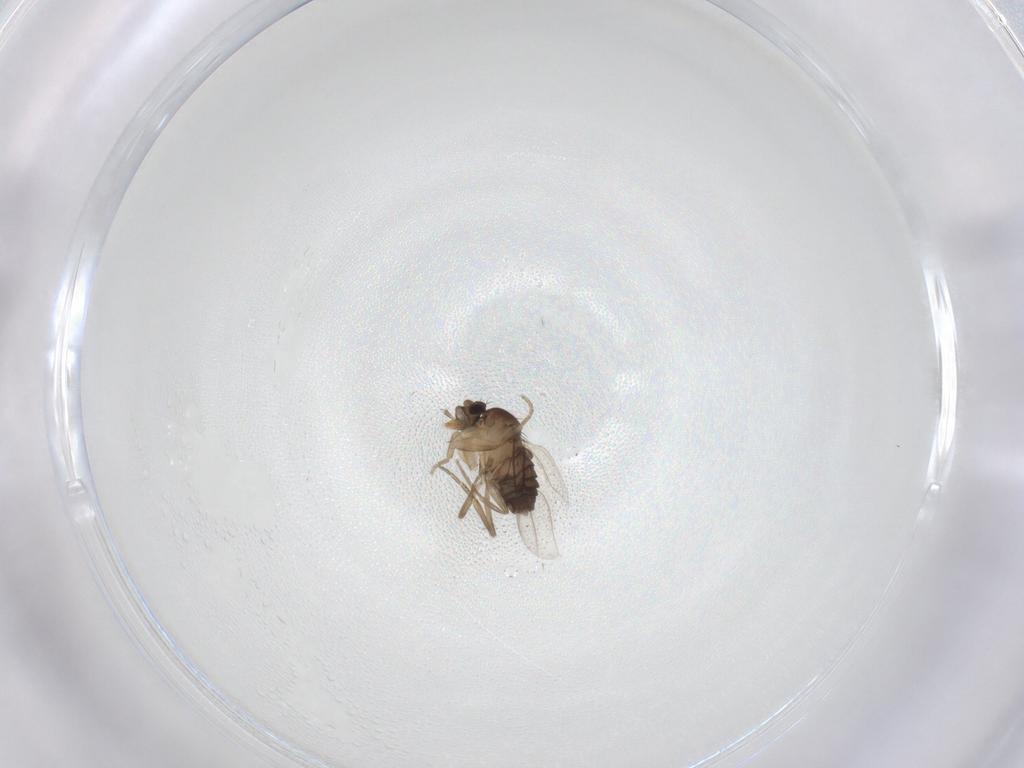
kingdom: Animalia
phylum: Arthropoda
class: Insecta
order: Diptera
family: Phoridae
